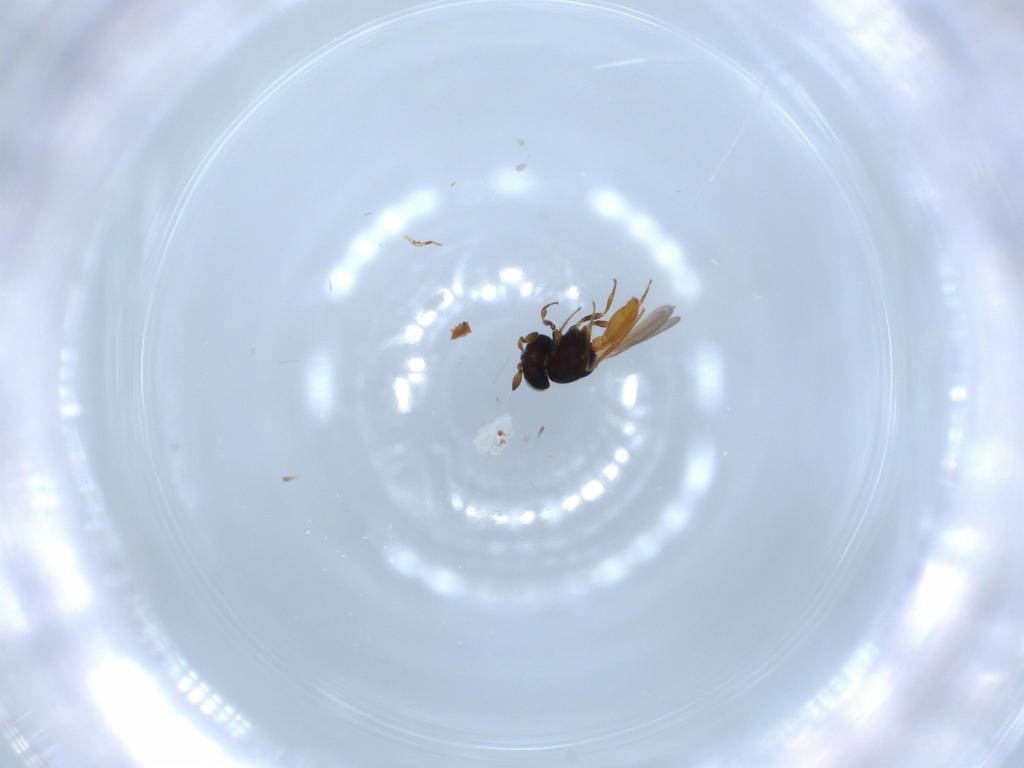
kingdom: Animalia
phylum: Arthropoda
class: Insecta
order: Hymenoptera
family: Scelionidae
